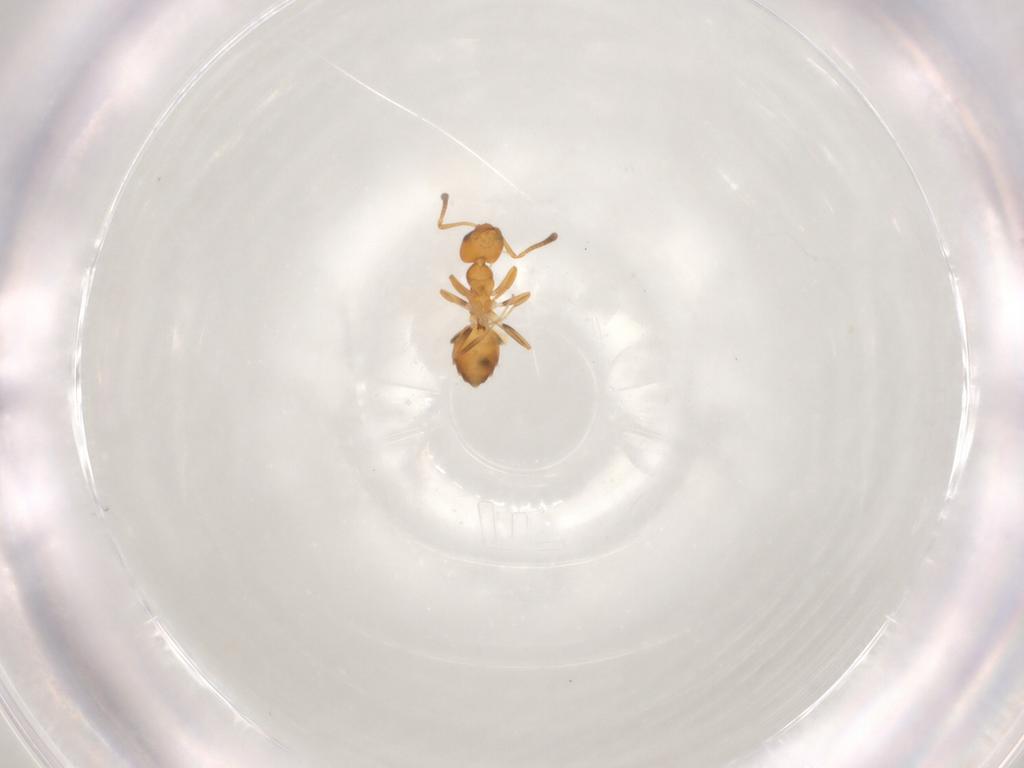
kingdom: Animalia
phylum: Arthropoda
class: Insecta
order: Hymenoptera
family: Formicidae
